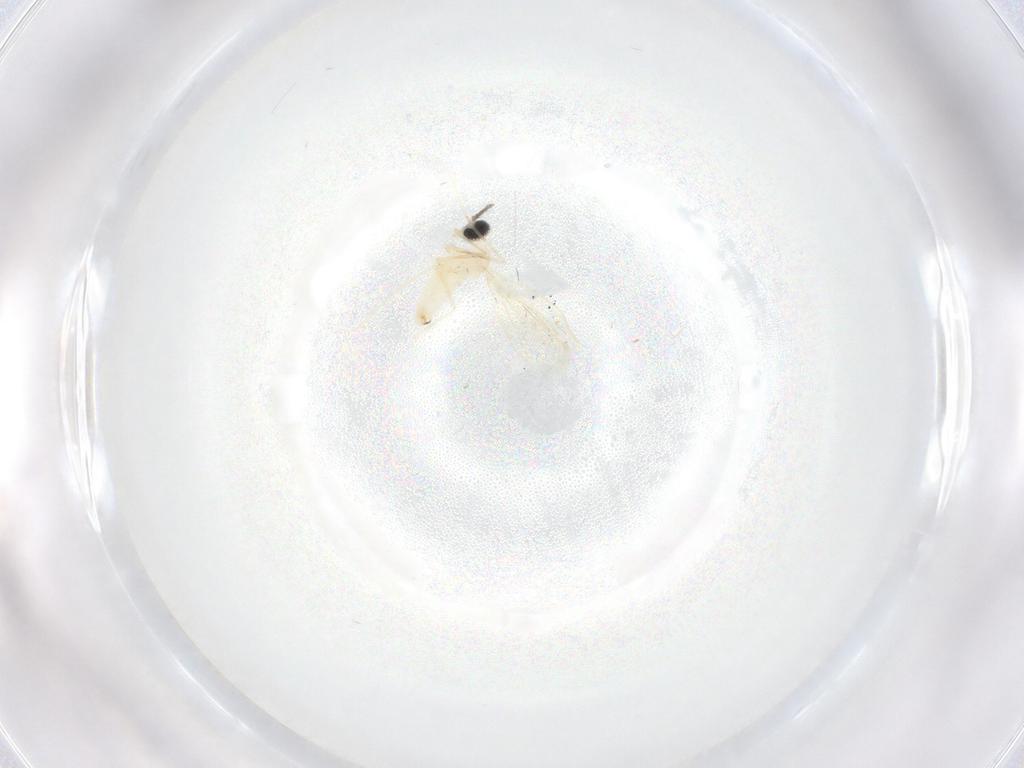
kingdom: Animalia
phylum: Arthropoda
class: Insecta
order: Diptera
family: Cecidomyiidae
